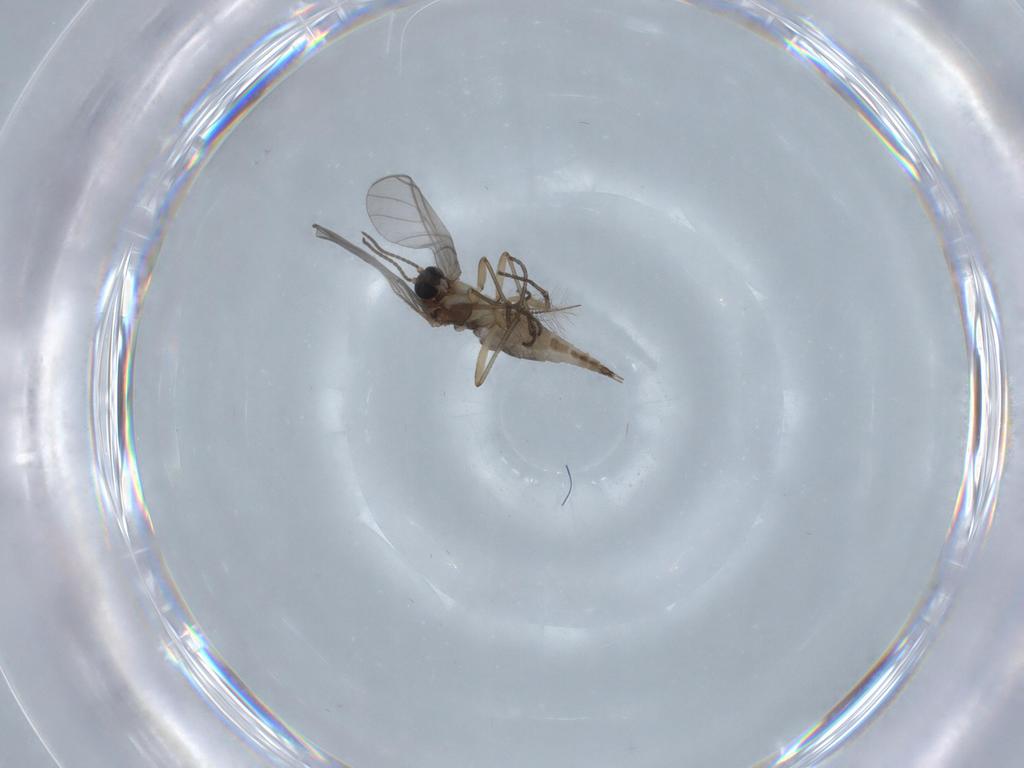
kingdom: Animalia
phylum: Arthropoda
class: Insecta
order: Diptera
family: Sciaridae
